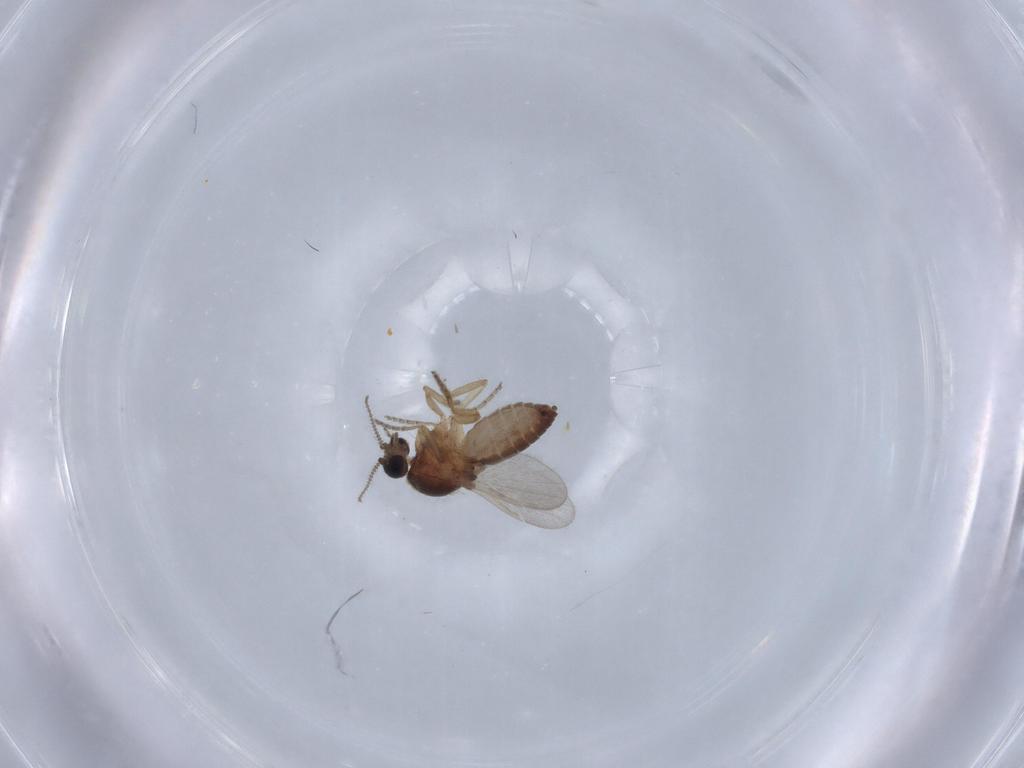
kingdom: Animalia
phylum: Arthropoda
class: Insecta
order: Diptera
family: Ceratopogonidae
